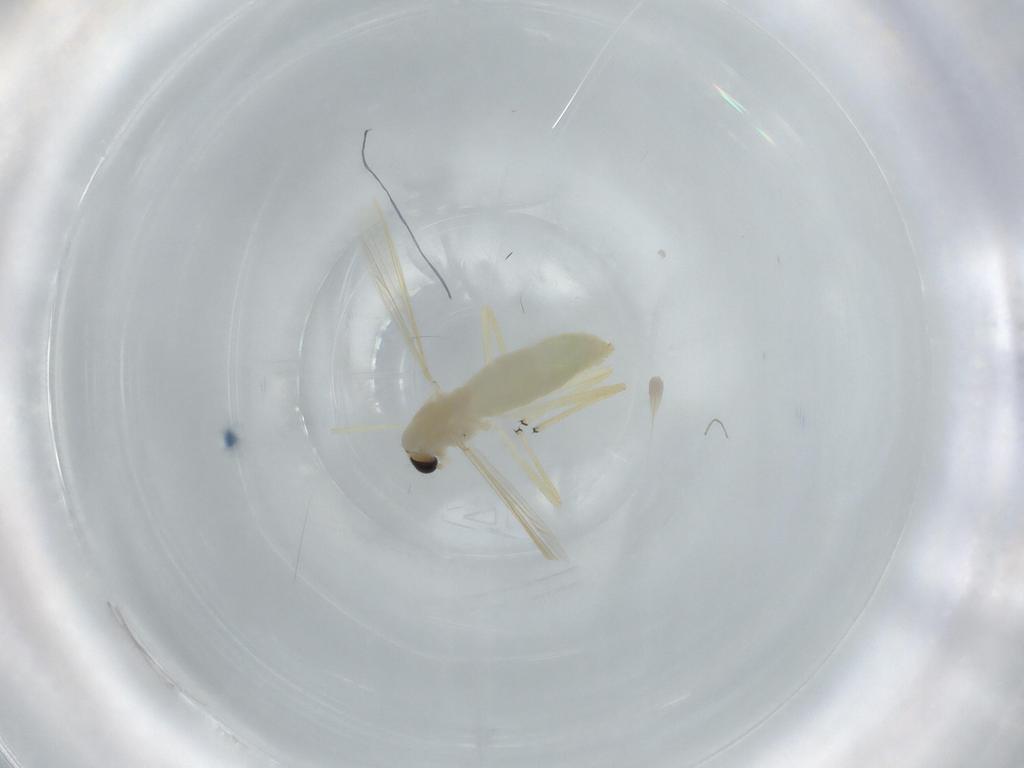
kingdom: Animalia
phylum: Arthropoda
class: Insecta
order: Diptera
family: Chironomidae
